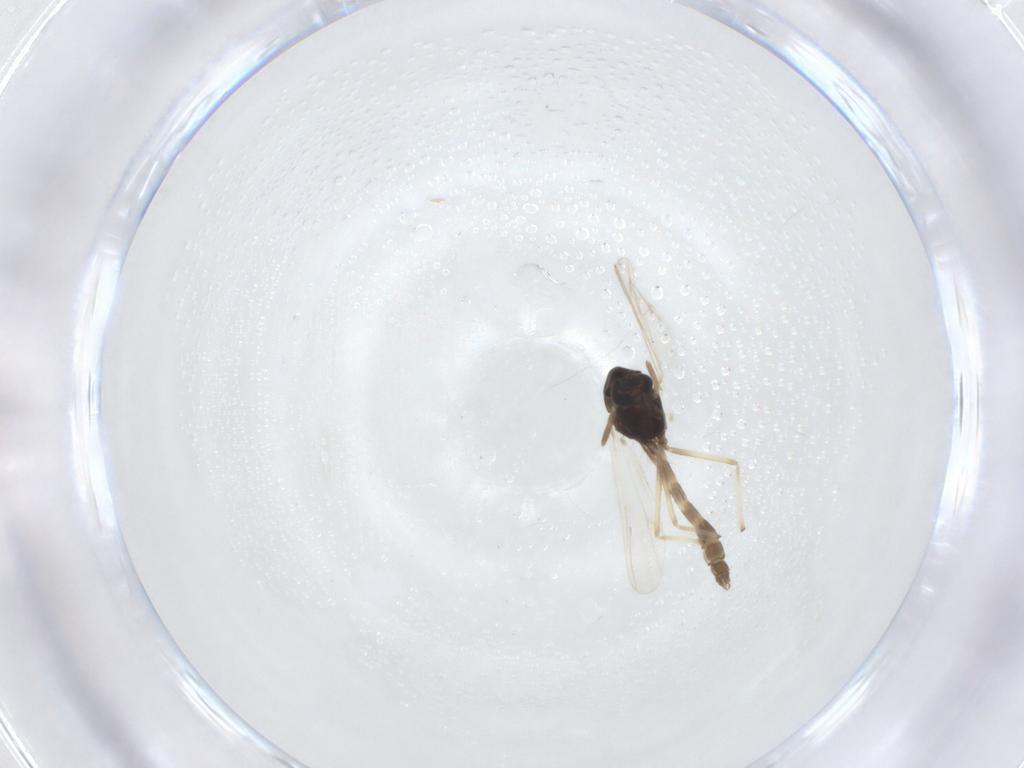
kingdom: Animalia
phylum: Arthropoda
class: Insecta
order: Diptera
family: Chironomidae
